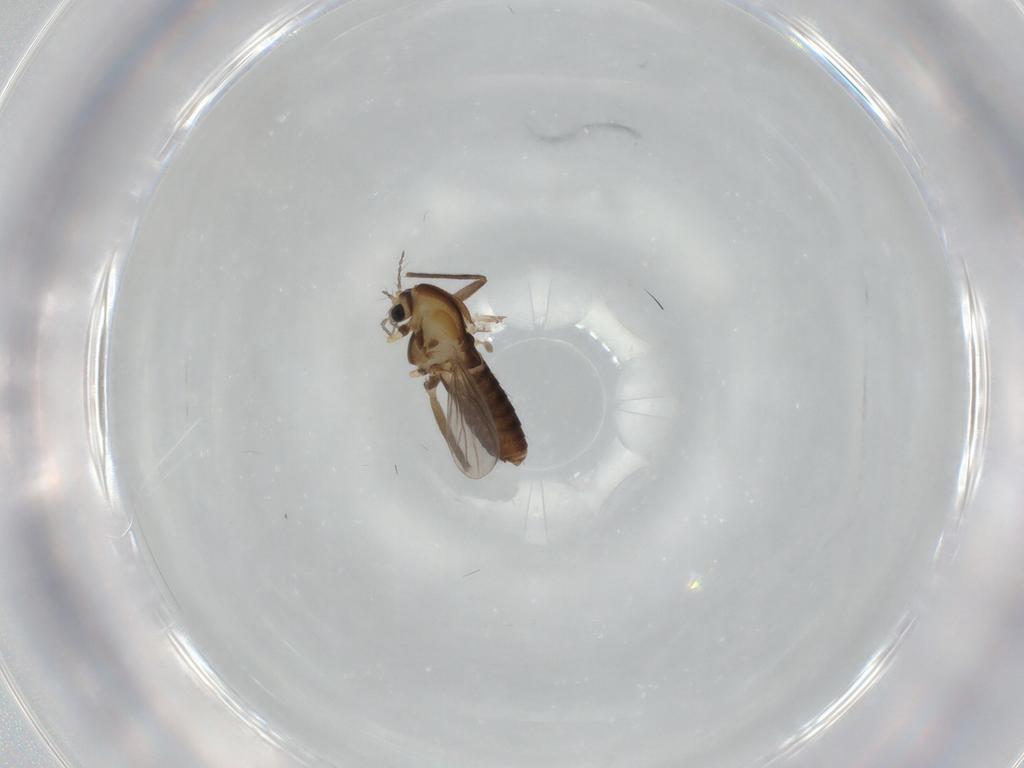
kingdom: Animalia
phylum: Arthropoda
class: Insecta
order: Diptera
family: Chironomidae
